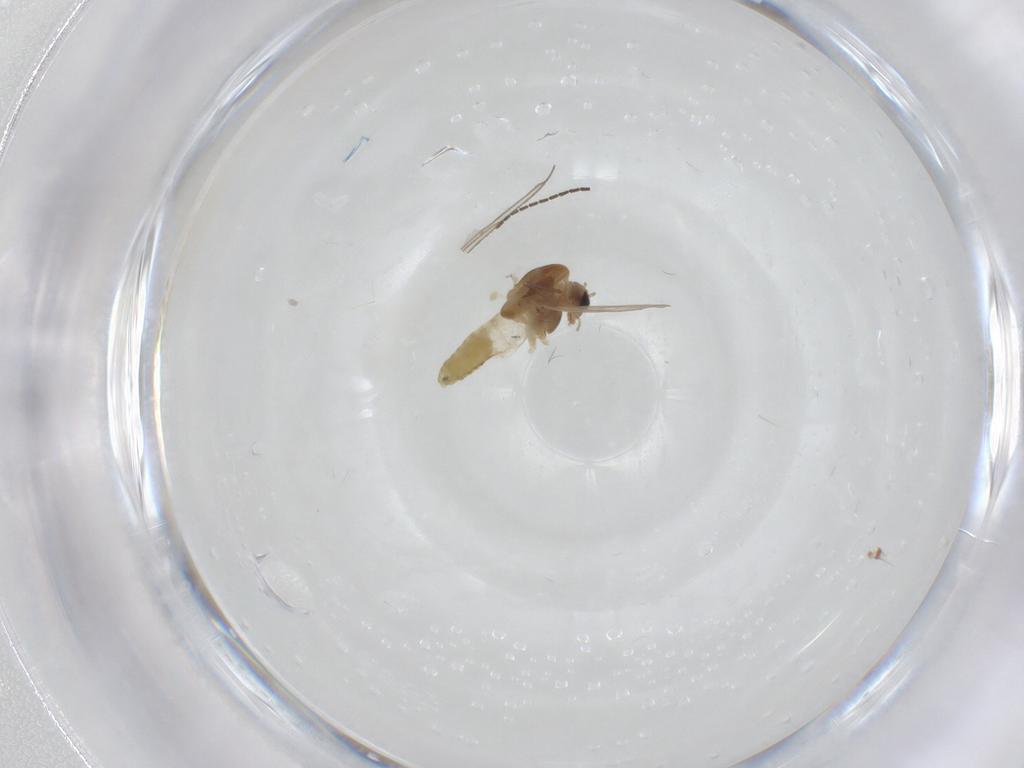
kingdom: Animalia
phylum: Arthropoda
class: Insecta
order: Diptera
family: Chironomidae
